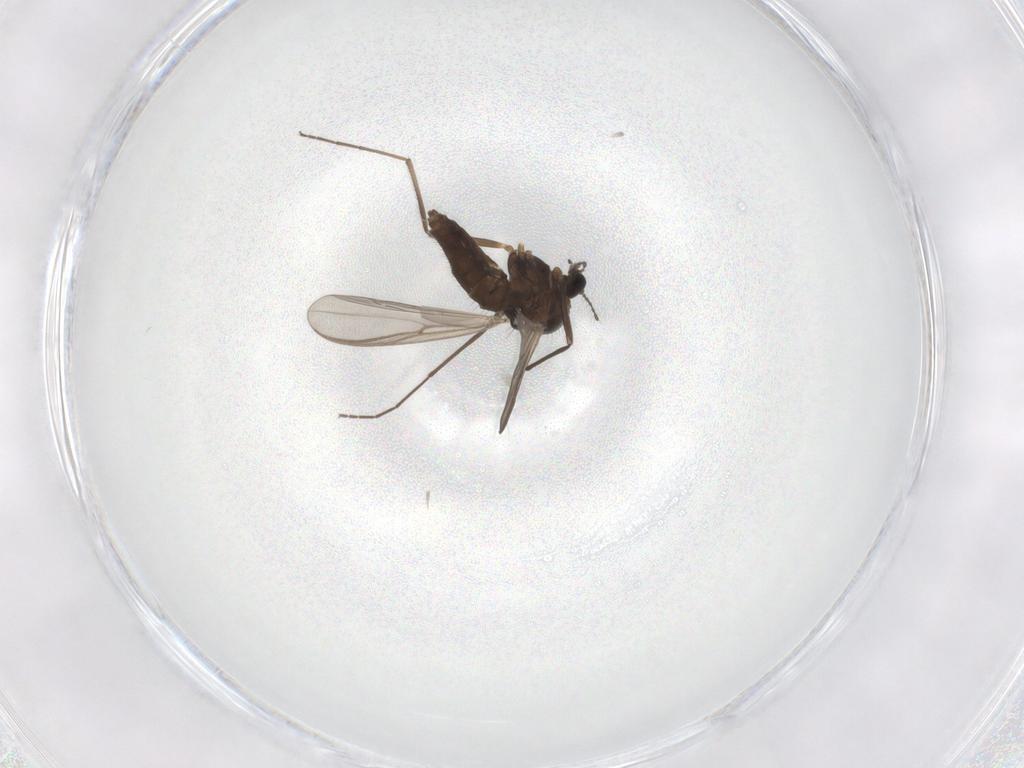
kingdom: Animalia
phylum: Arthropoda
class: Insecta
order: Diptera
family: Chironomidae
